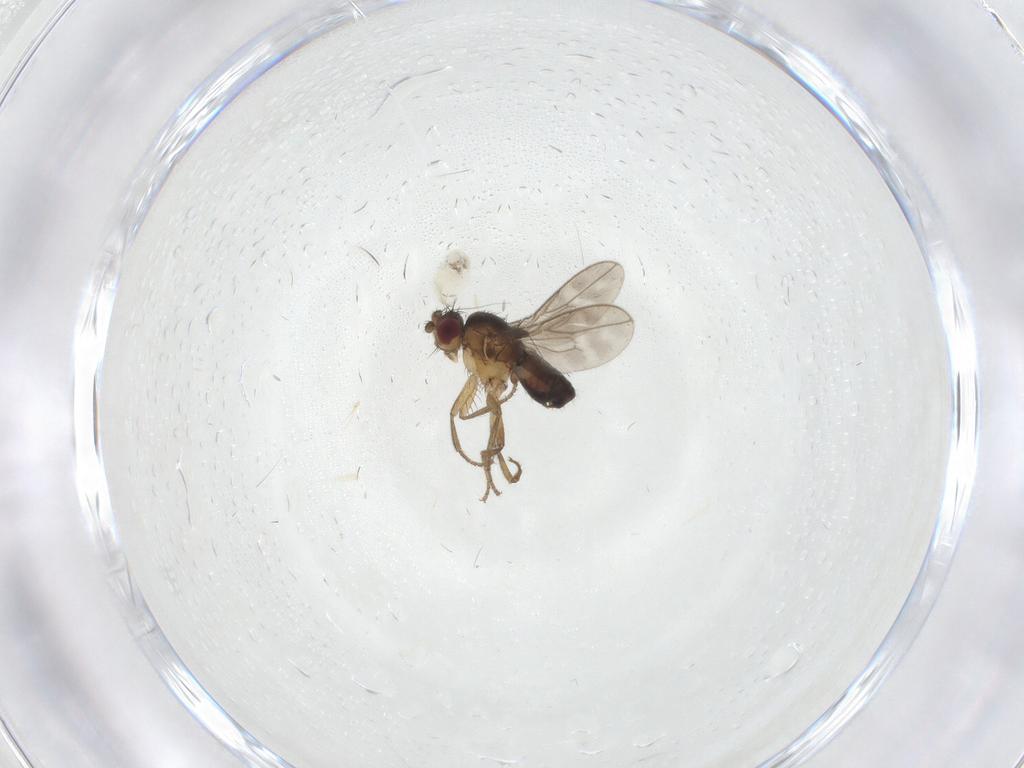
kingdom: Animalia
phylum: Arthropoda
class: Insecta
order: Diptera
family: Sphaeroceridae
